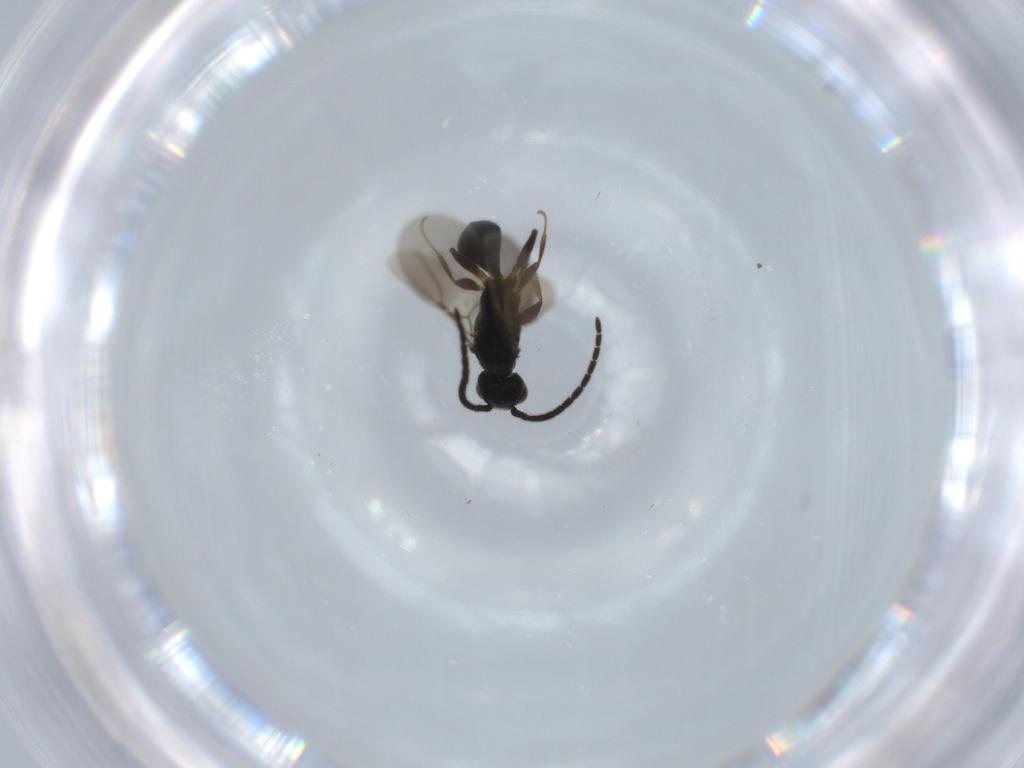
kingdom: Animalia
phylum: Arthropoda
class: Insecta
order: Hymenoptera
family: Bethylidae
